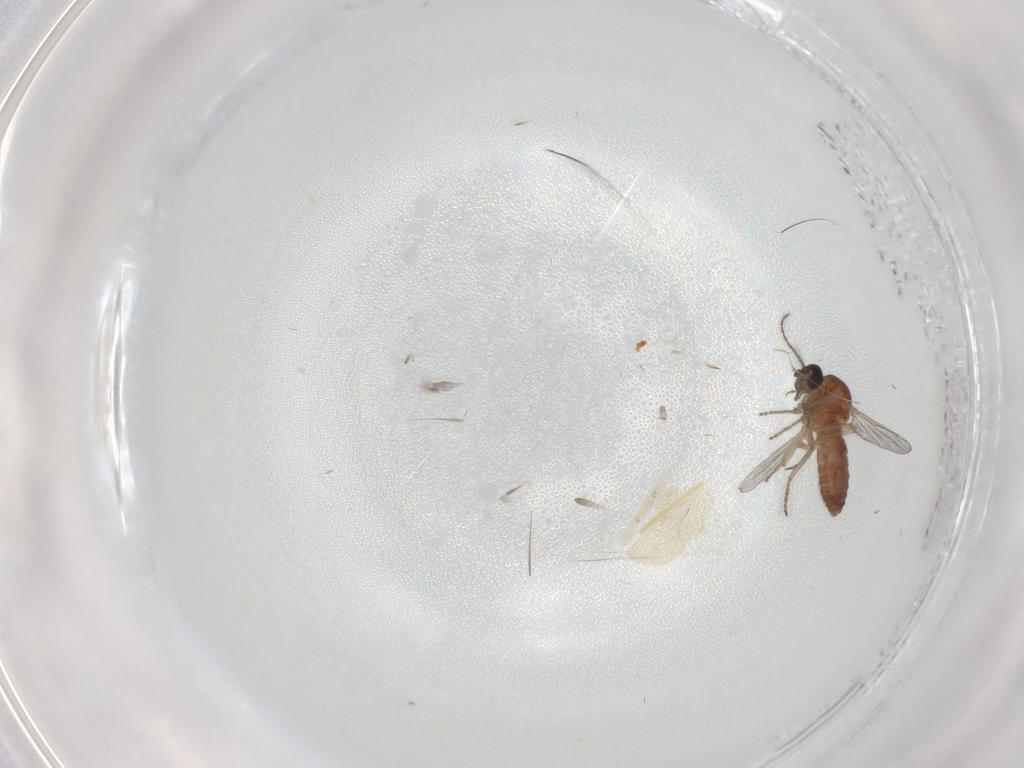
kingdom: Animalia
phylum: Arthropoda
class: Insecta
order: Diptera
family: Ceratopogonidae
